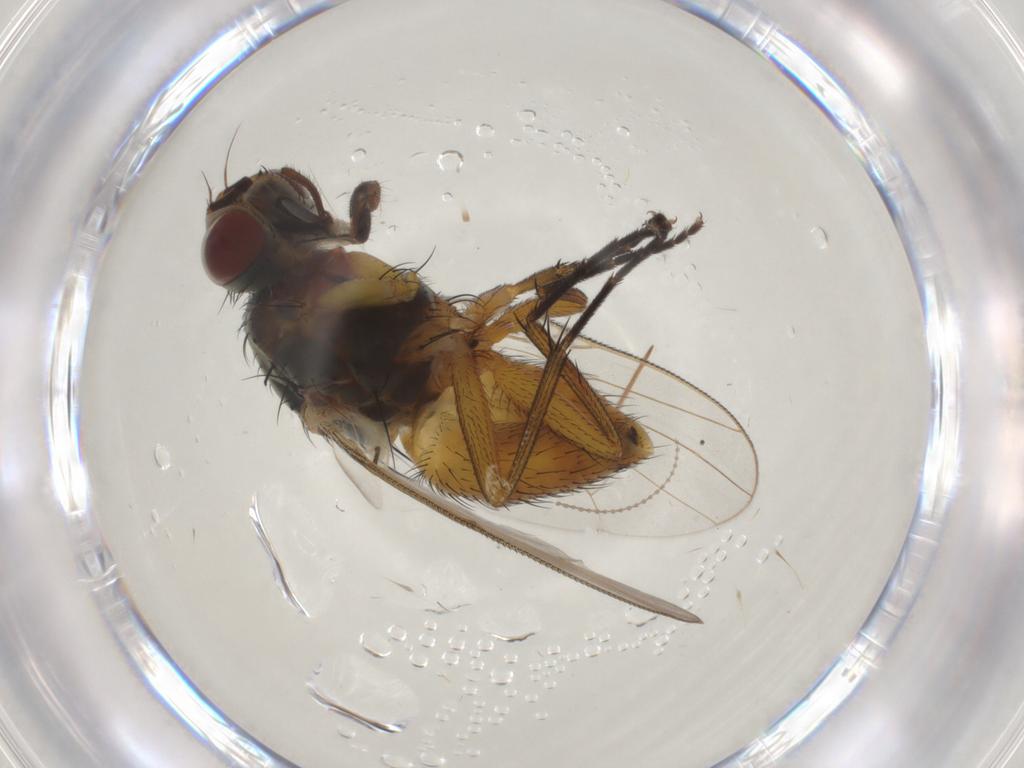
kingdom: Animalia
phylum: Arthropoda
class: Insecta
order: Diptera
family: Muscidae
